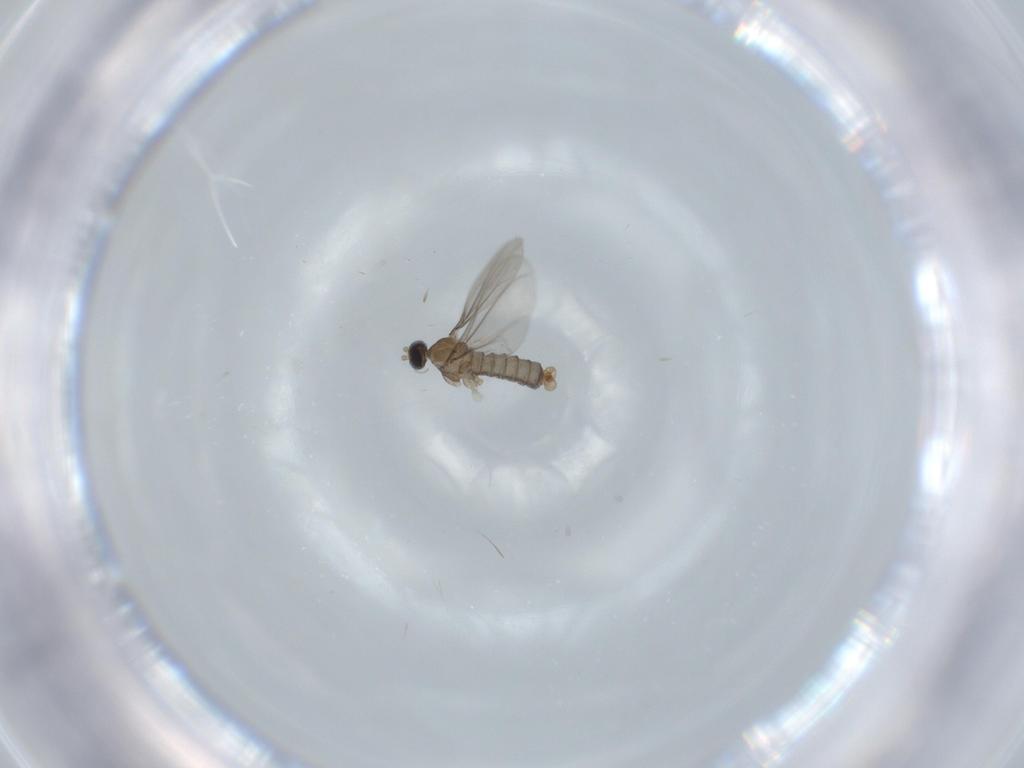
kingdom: Animalia
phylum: Arthropoda
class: Insecta
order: Diptera
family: Cecidomyiidae
